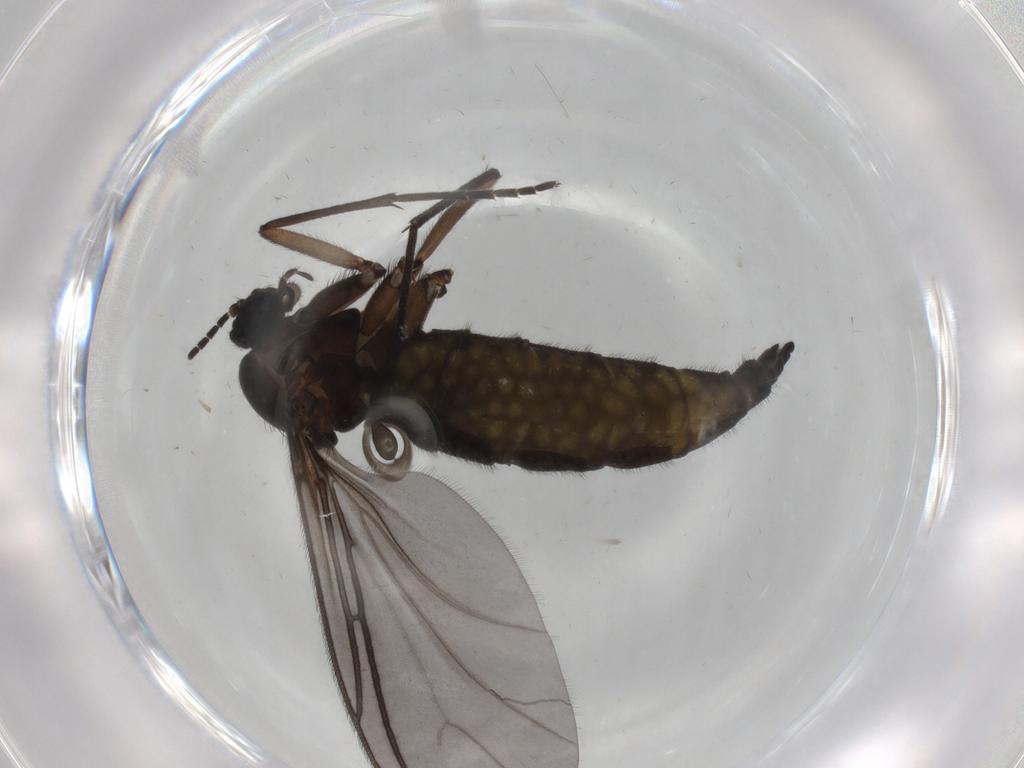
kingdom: Animalia
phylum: Arthropoda
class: Insecta
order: Diptera
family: Sciaridae
